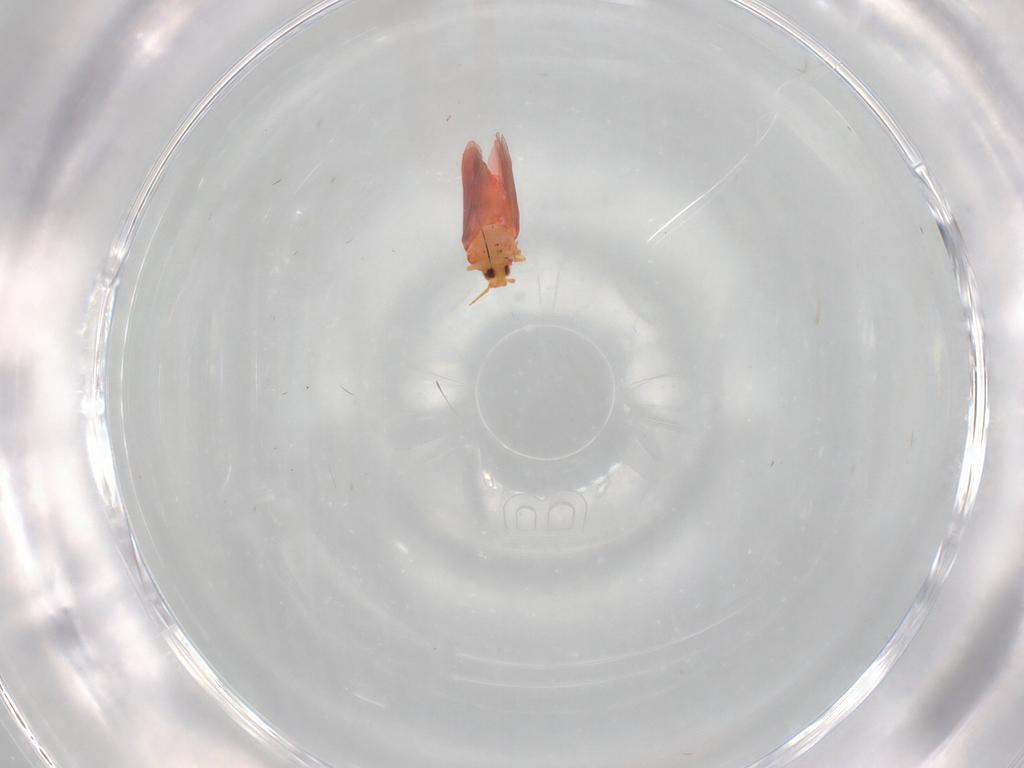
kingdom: Animalia
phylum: Arthropoda
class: Insecta
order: Hemiptera
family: Aleyrodidae
